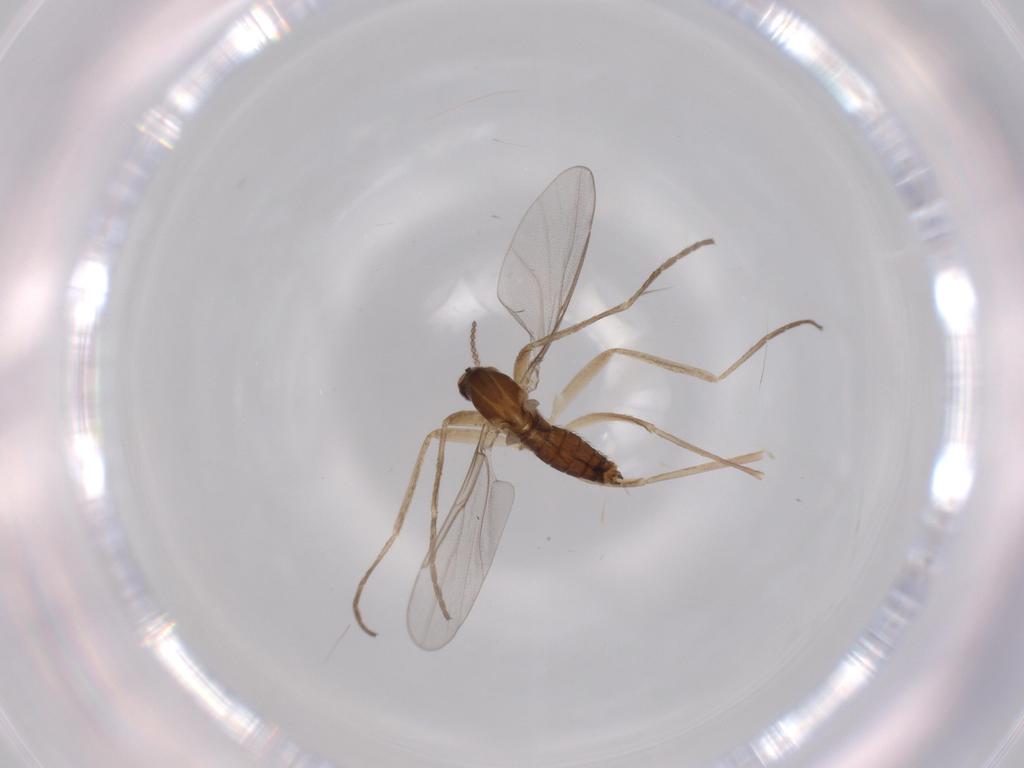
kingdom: Animalia
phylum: Arthropoda
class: Insecta
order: Diptera
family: Cecidomyiidae
